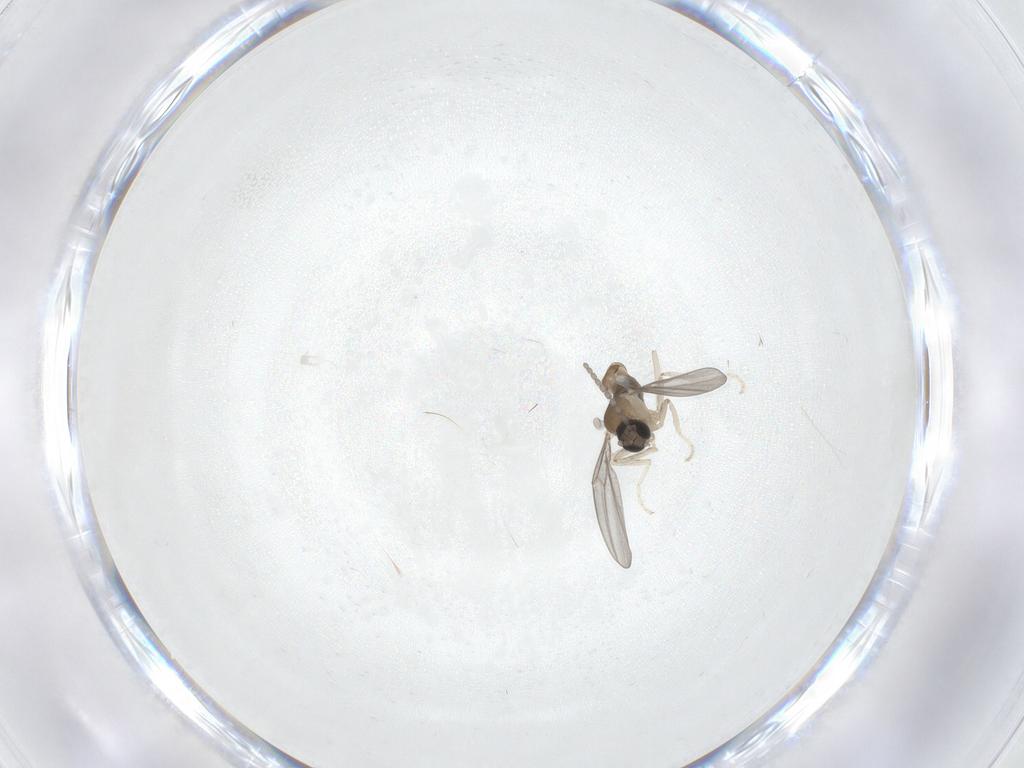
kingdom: Animalia
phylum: Arthropoda
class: Insecta
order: Diptera
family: Cecidomyiidae
